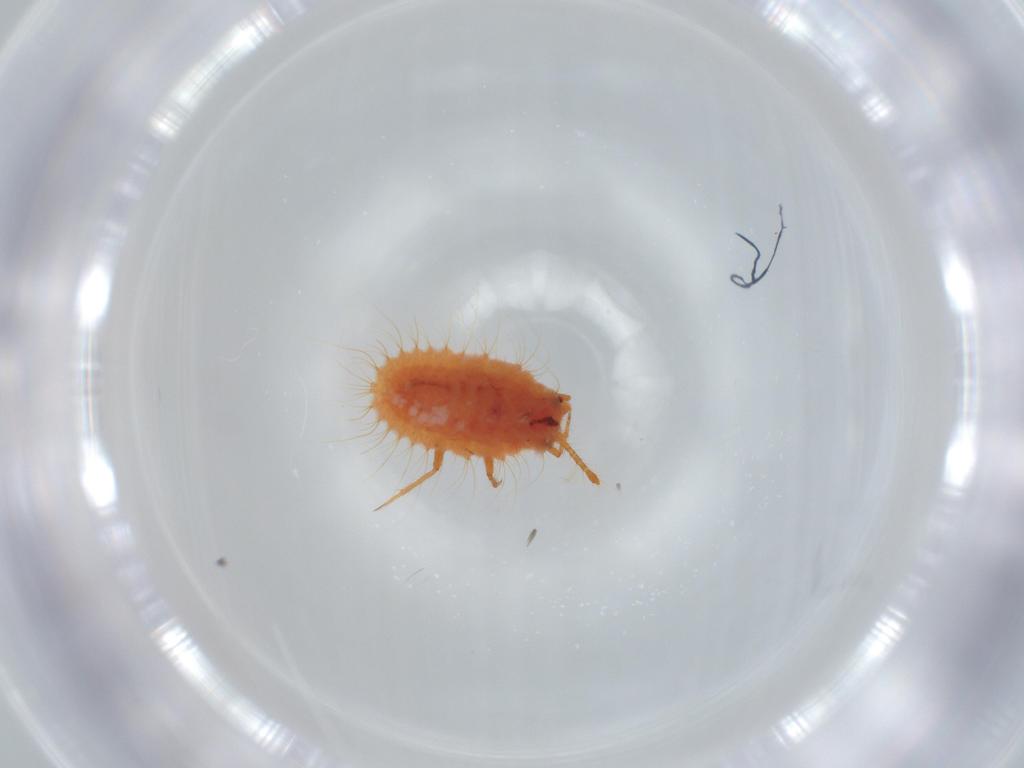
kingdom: Animalia
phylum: Arthropoda
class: Insecta
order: Hemiptera
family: Coccoidea_incertae_sedis
